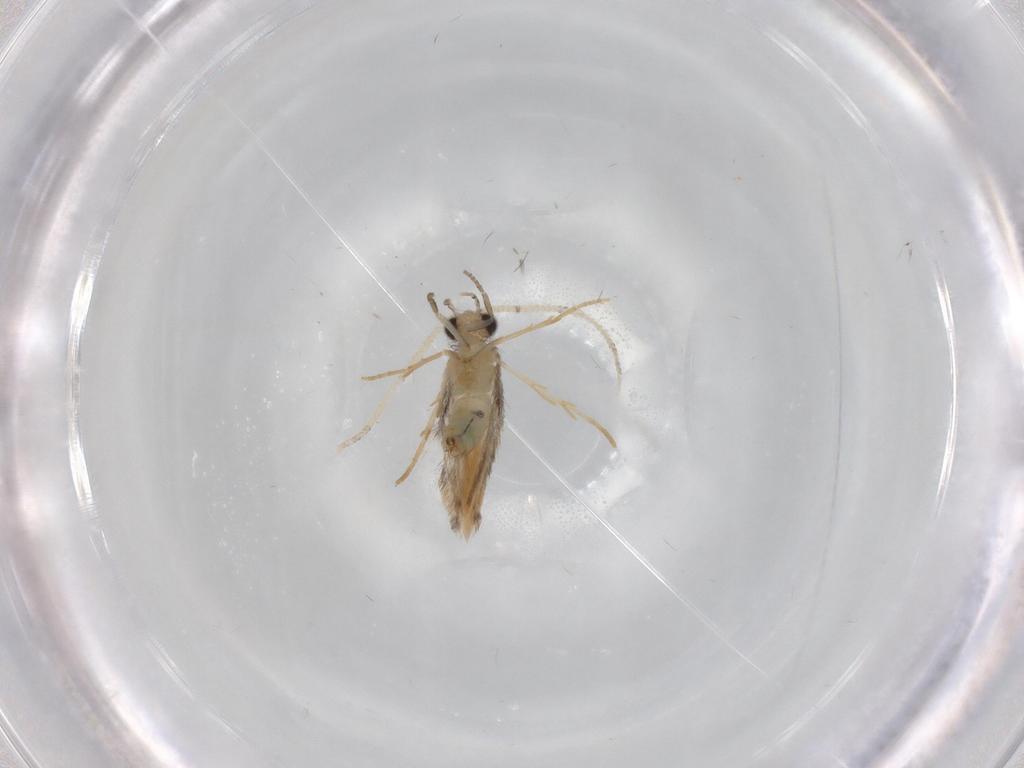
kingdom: Animalia
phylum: Arthropoda
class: Insecta
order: Trichoptera
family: Hydroptilidae
